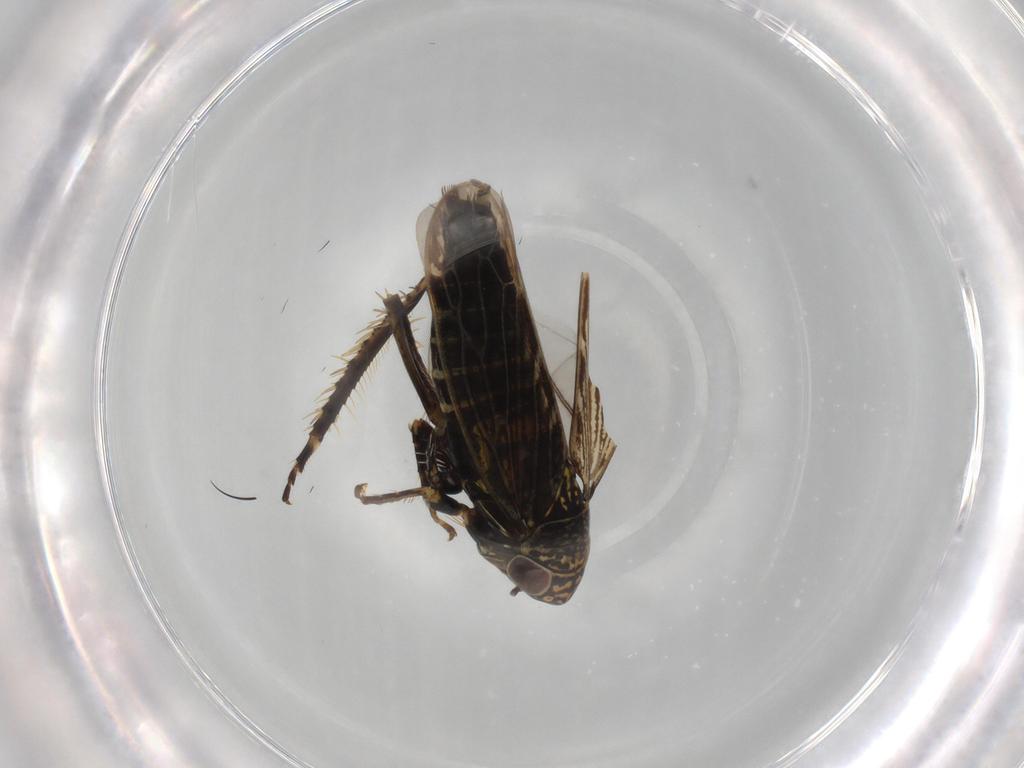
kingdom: Animalia
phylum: Arthropoda
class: Insecta
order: Hemiptera
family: Cicadellidae
